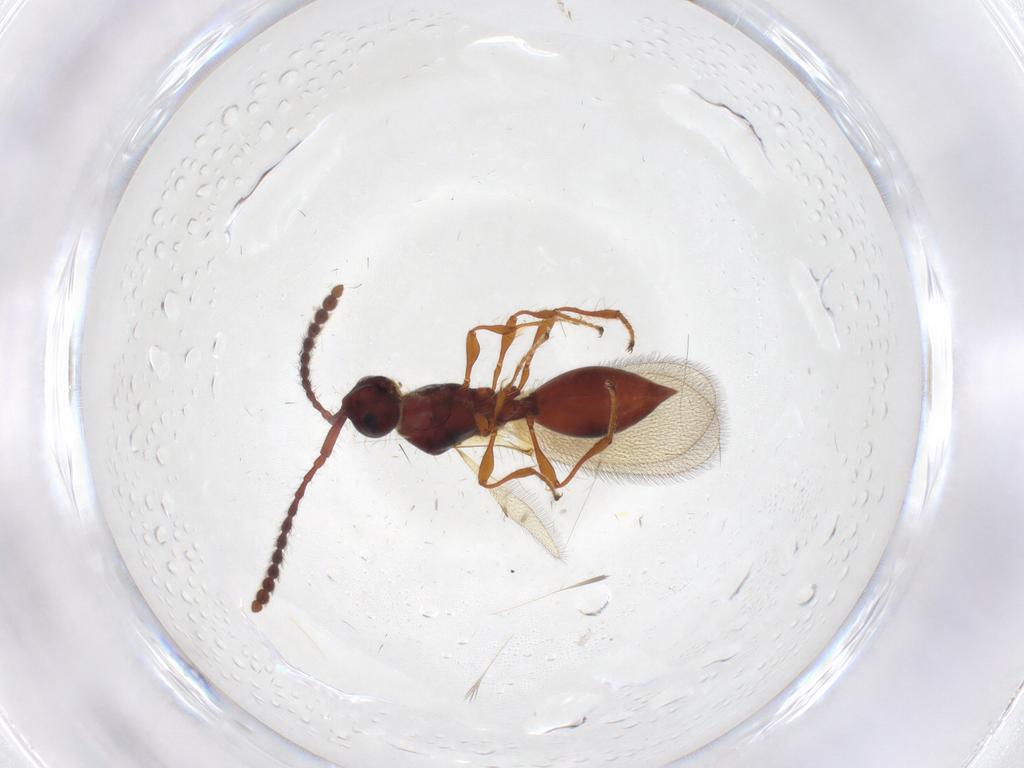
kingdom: Animalia
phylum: Arthropoda
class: Insecta
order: Hymenoptera
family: Diapriidae
